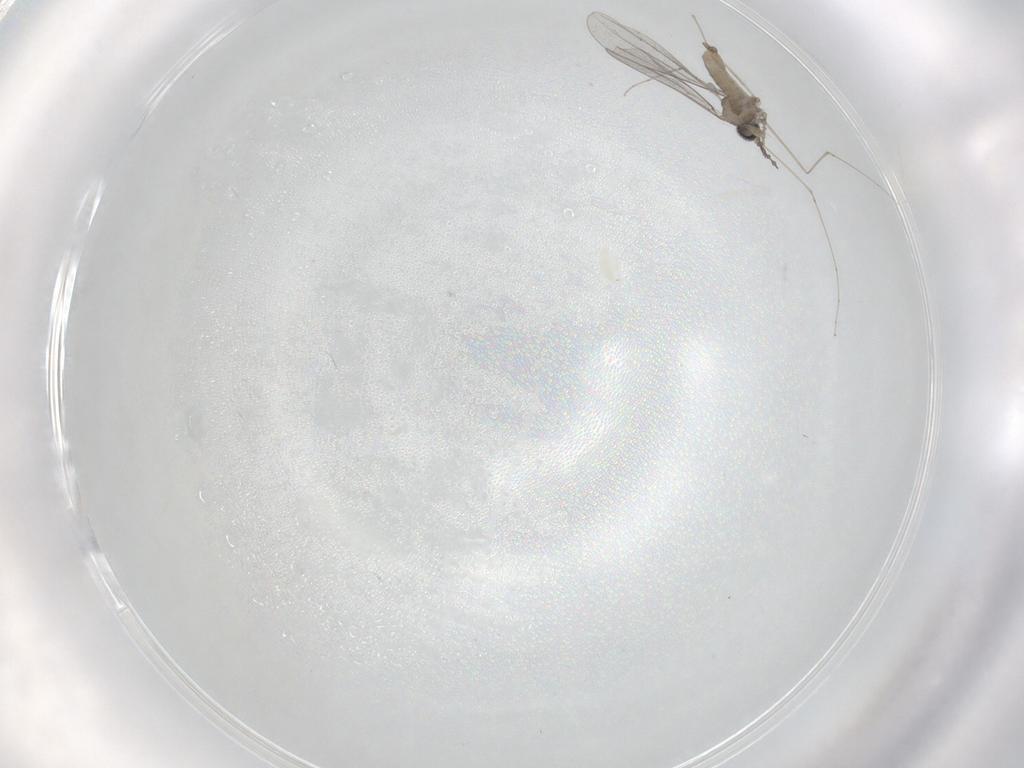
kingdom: Animalia
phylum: Arthropoda
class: Insecta
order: Diptera
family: Cecidomyiidae
